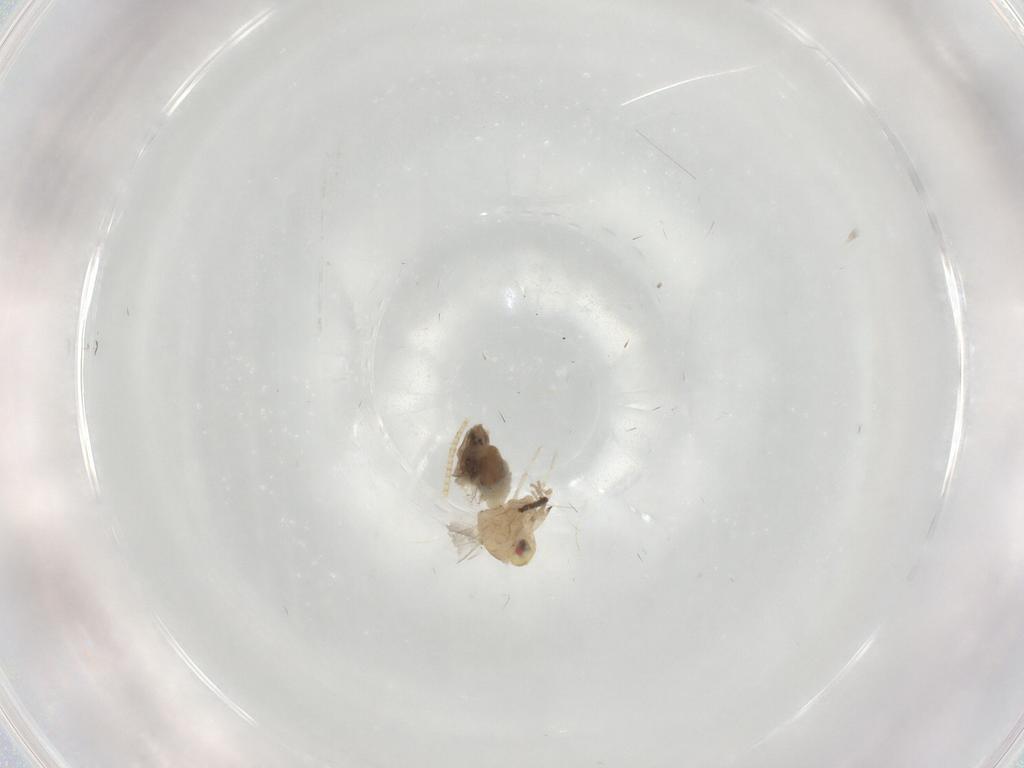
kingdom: Animalia
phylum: Arthropoda
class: Insecta
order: Hemiptera
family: Aleyrodidae
